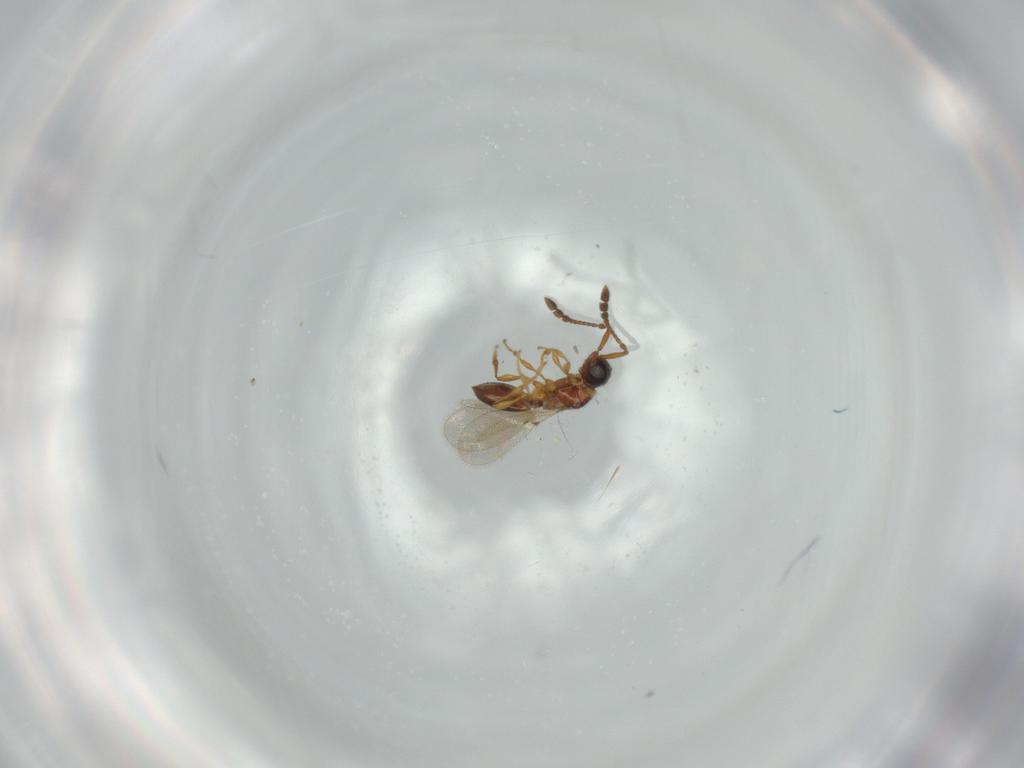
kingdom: Animalia
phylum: Arthropoda
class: Insecta
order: Hymenoptera
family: Diapriidae
